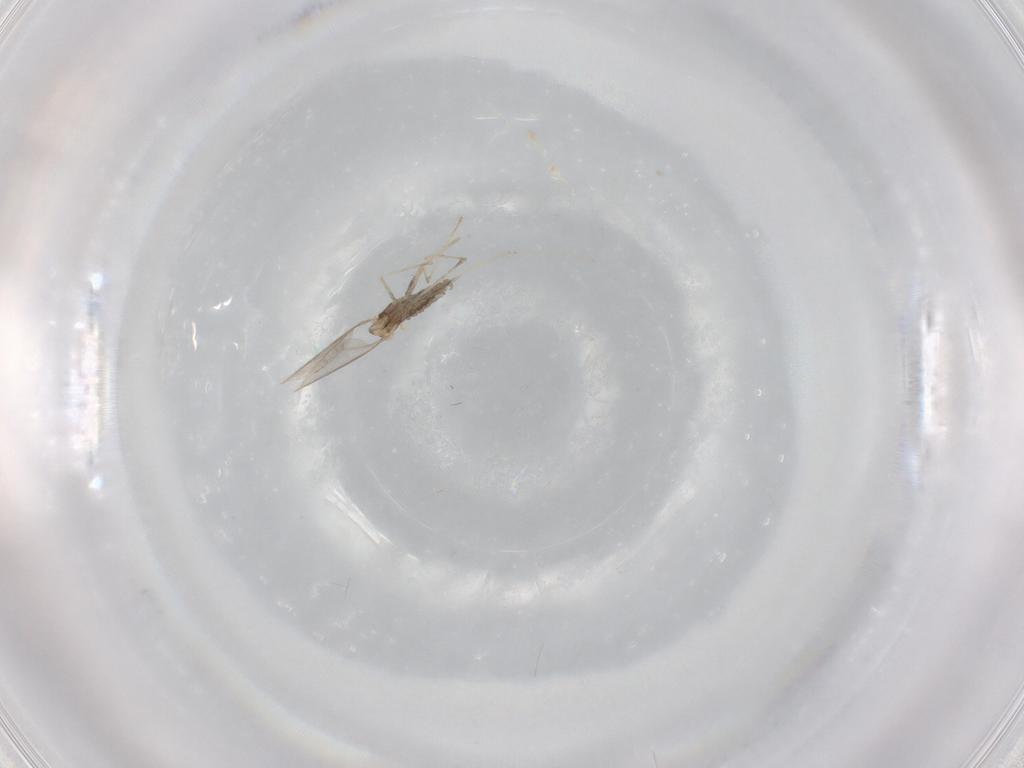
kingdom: Animalia
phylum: Arthropoda
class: Insecta
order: Diptera
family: Cecidomyiidae
